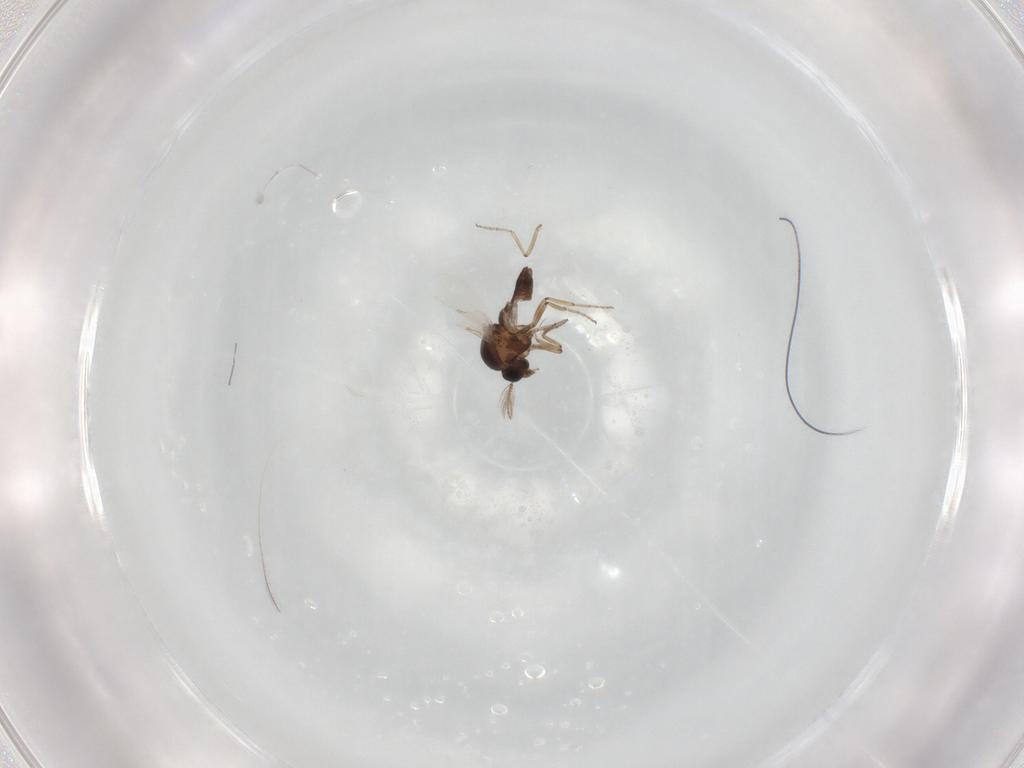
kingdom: Animalia
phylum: Arthropoda
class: Insecta
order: Diptera
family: Ceratopogonidae
